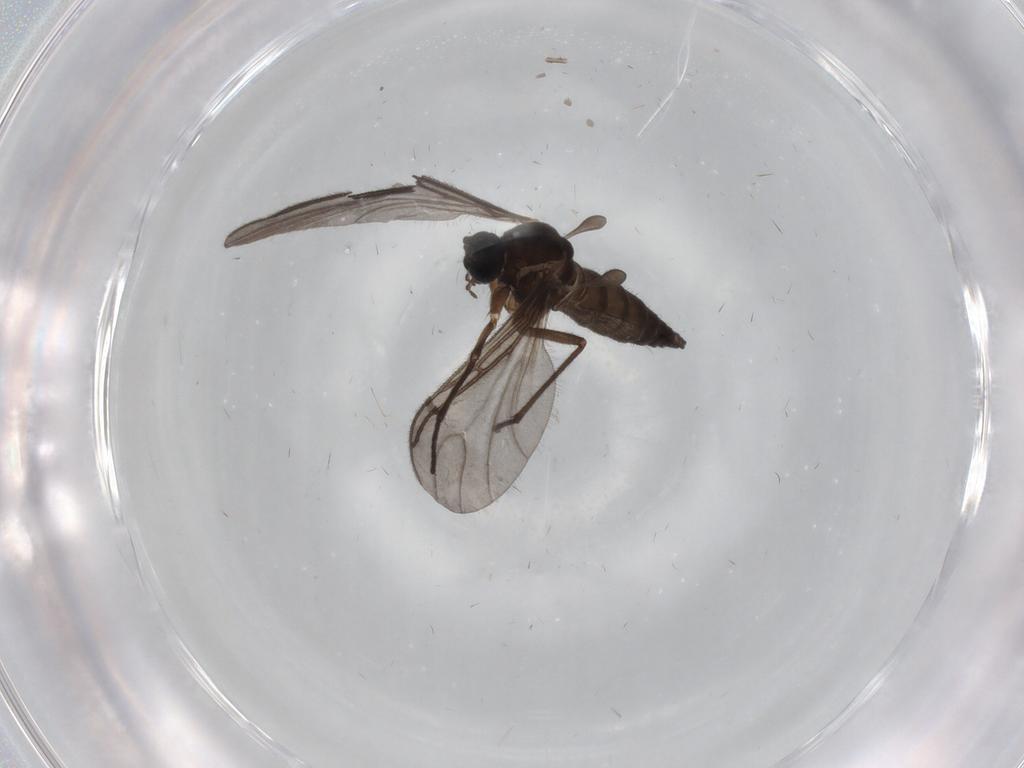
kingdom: Animalia
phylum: Arthropoda
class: Insecta
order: Diptera
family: Sciaridae
